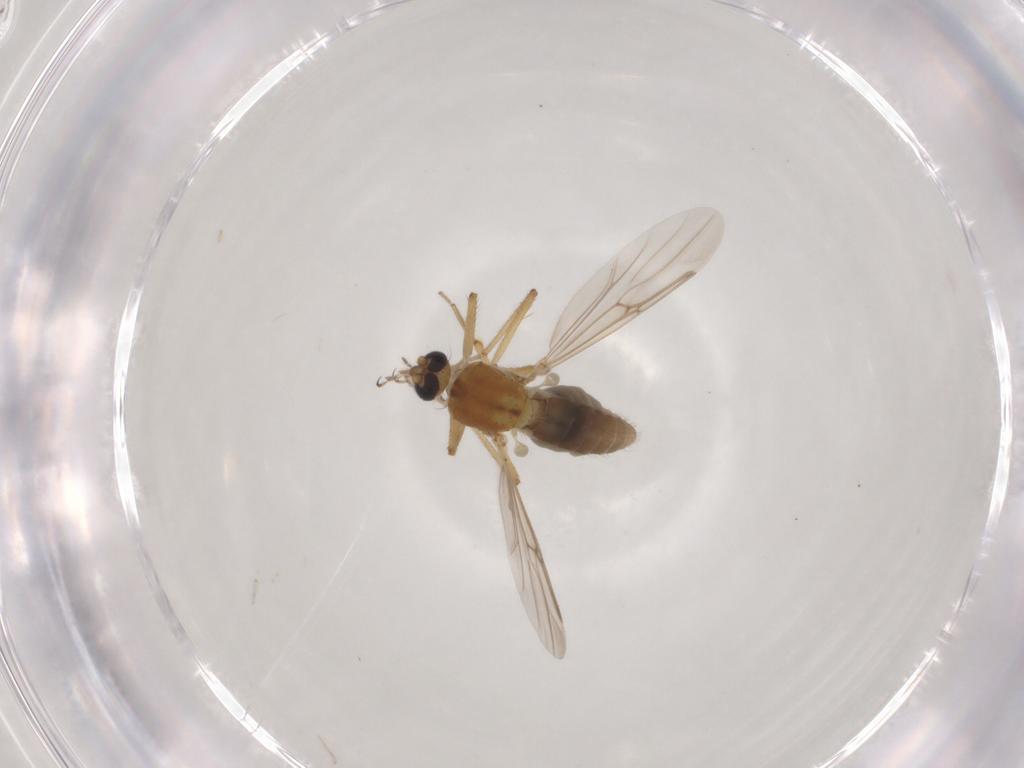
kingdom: Animalia
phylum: Arthropoda
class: Insecta
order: Diptera
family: Ceratopogonidae
